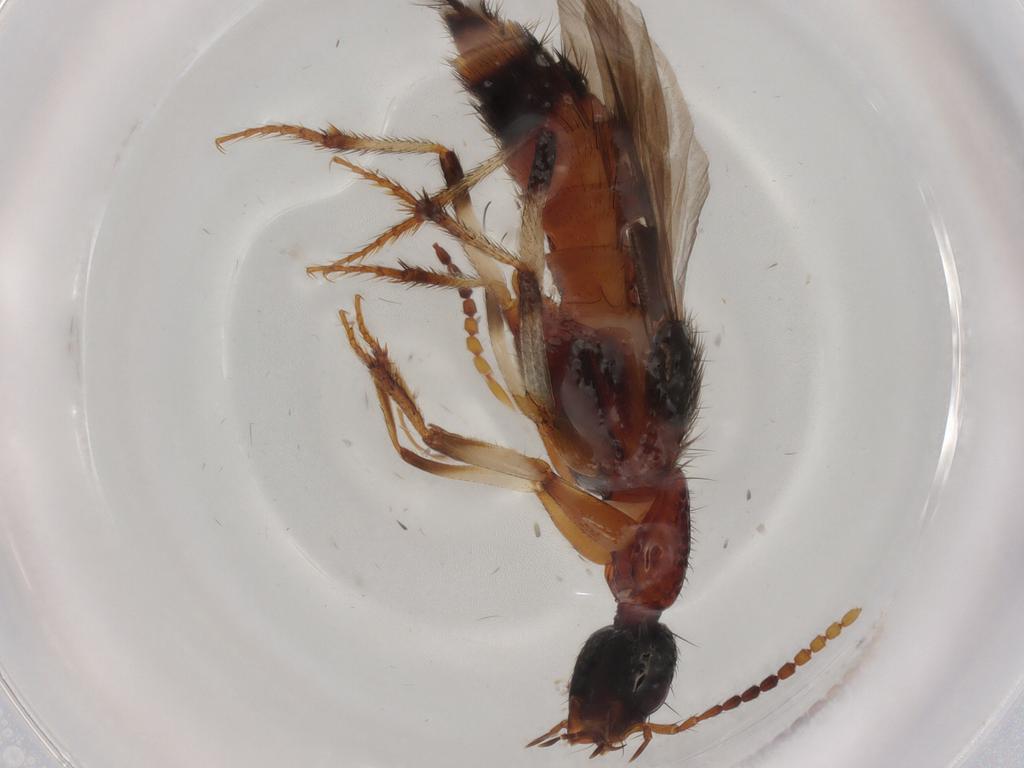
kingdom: Animalia
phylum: Arthropoda
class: Insecta
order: Coleoptera
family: Staphylinidae
